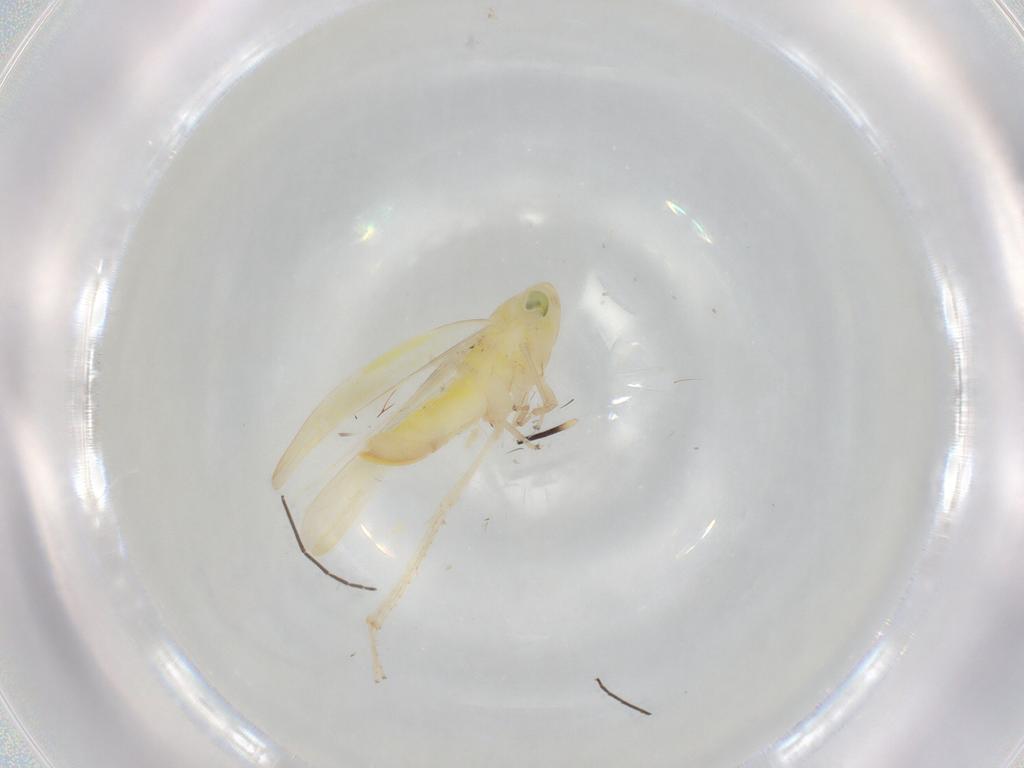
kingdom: Animalia
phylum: Arthropoda
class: Insecta
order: Hemiptera
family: Cicadellidae
